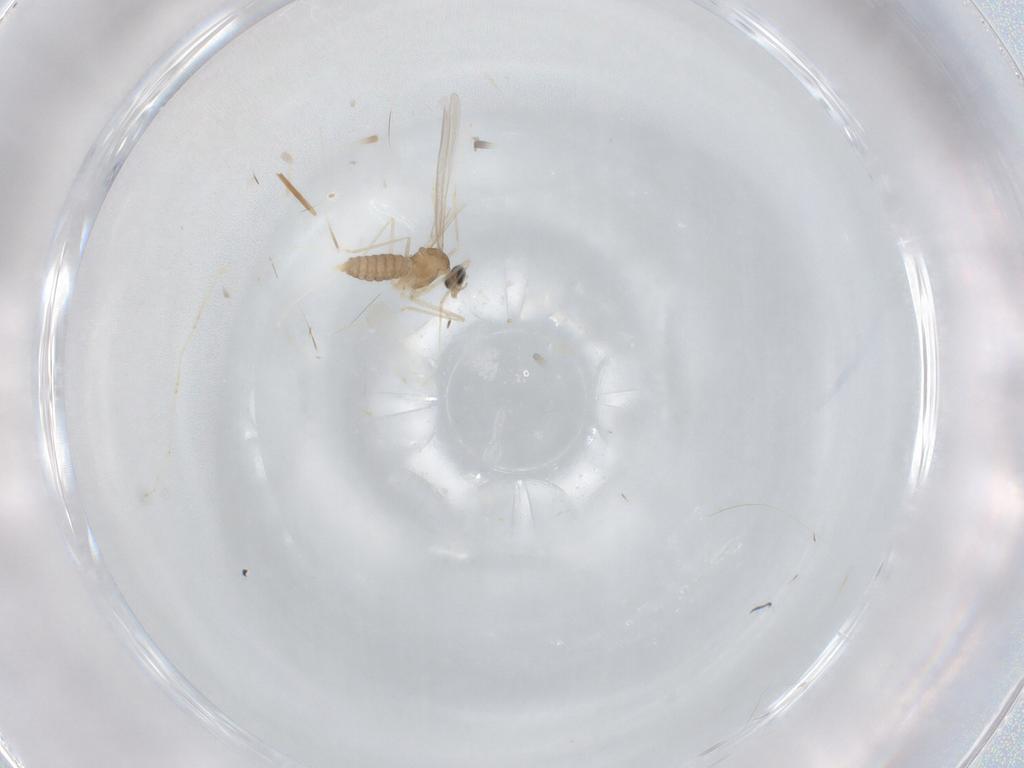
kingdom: Animalia
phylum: Arthropoda
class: Insecta
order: Diptera
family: Cecidomyiidae
